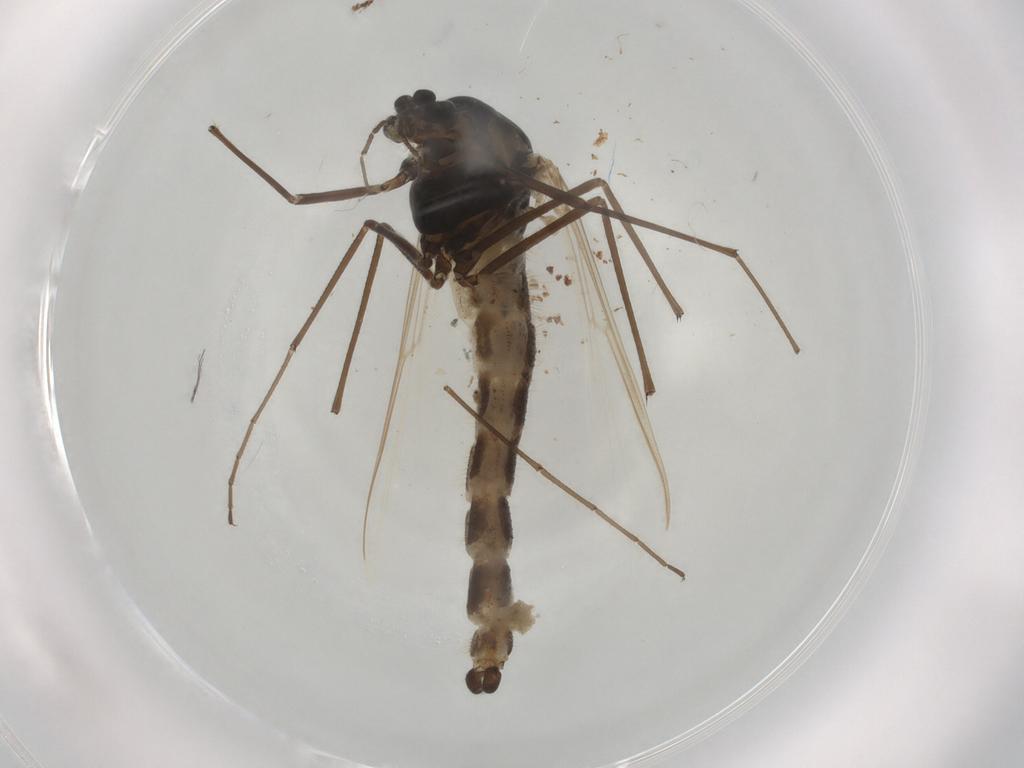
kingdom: Animalia
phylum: Arthropoda
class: Insecta
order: Diptera
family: Chironomidae
